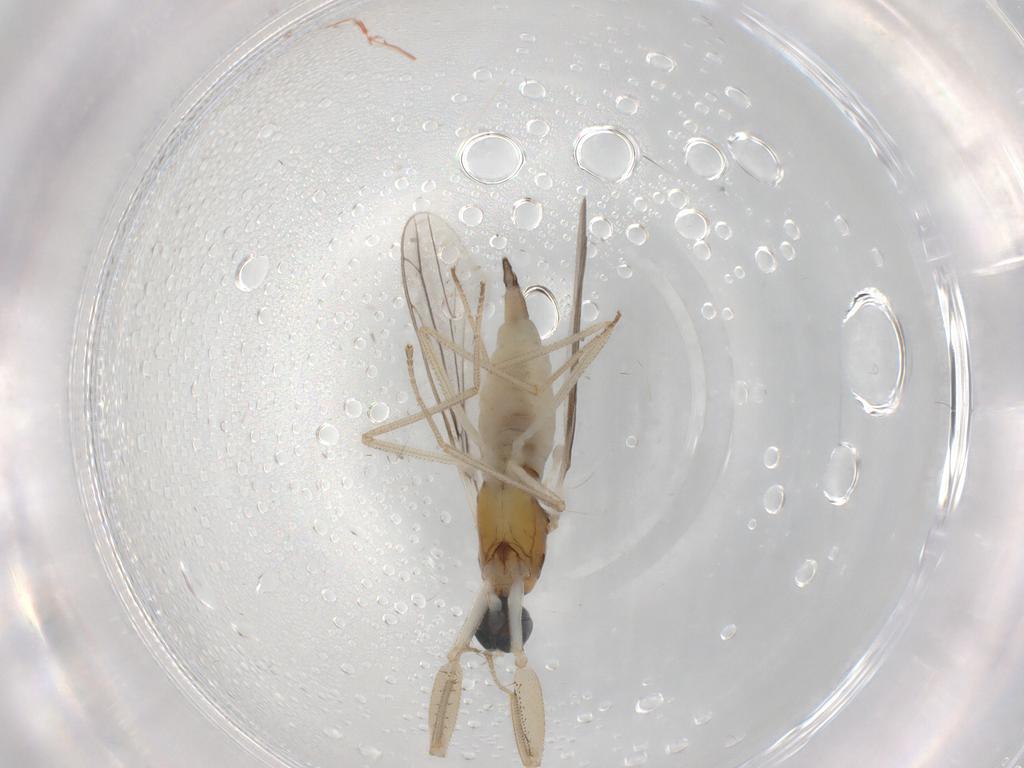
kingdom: Animalia
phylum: Arthropoda
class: Insecta
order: Diptera
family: Empididae
